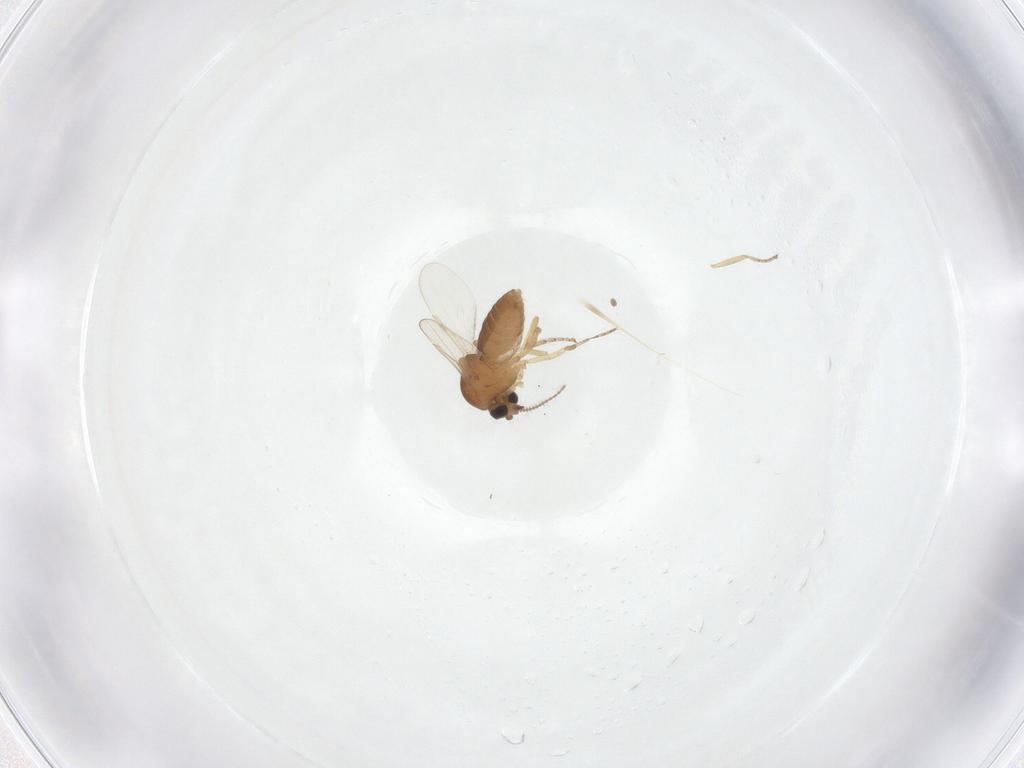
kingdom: Animalia
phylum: Arthropoda
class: Insecta
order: Diptera
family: Ceratopogonidae
